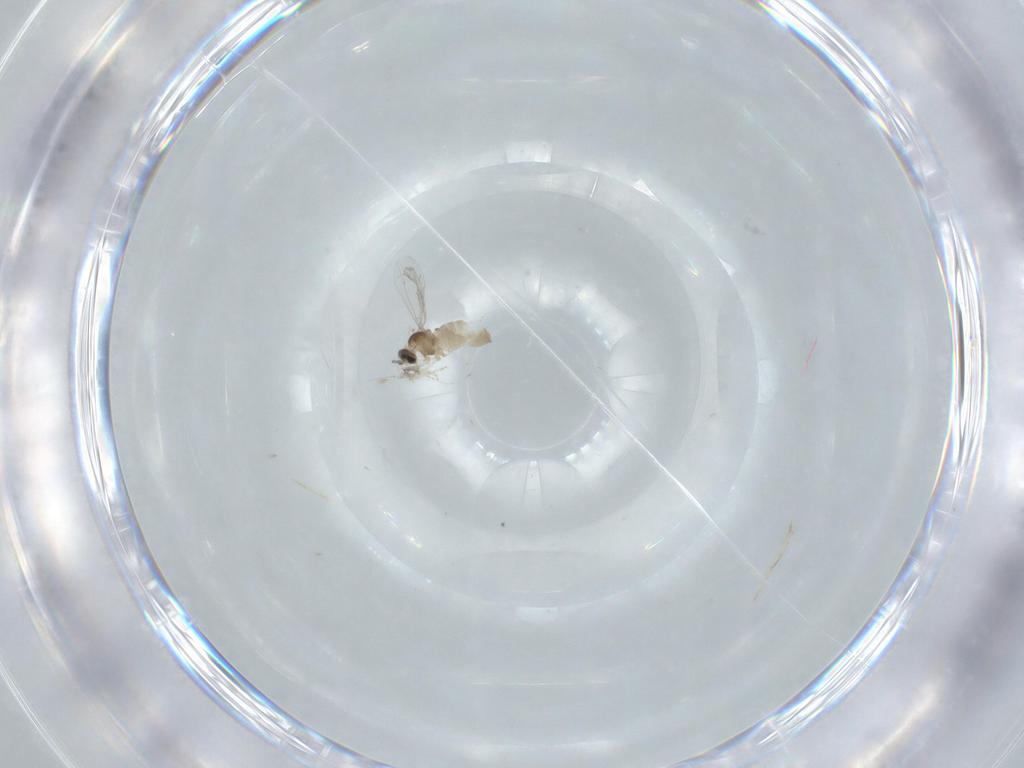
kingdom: Animalia
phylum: Arthropoda
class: Insecta
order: Diptera
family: Cecidomyiidae
